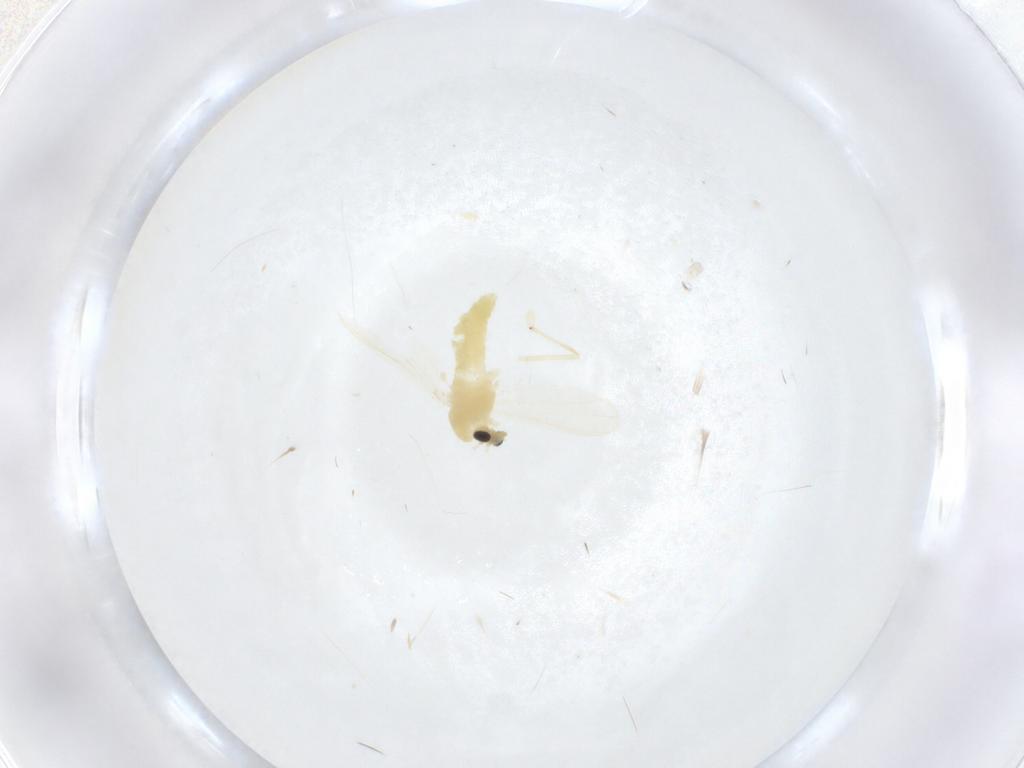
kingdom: Animalia
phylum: Arthropoda
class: Insecta
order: Diptera
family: Chironomidae
